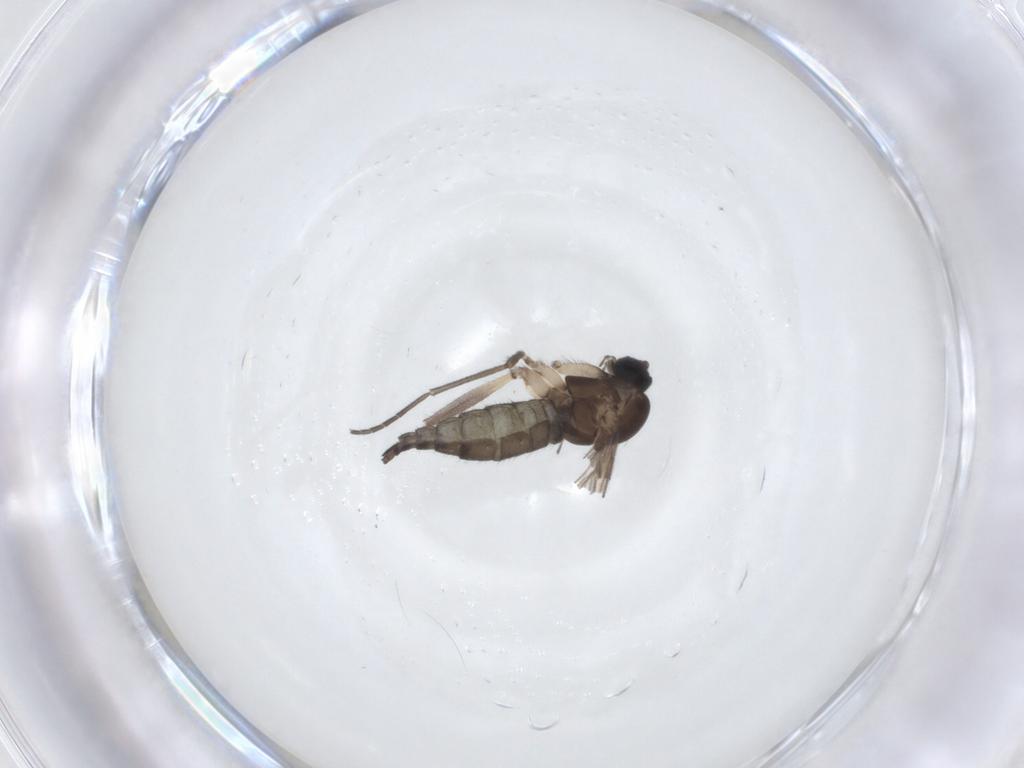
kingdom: Animalia
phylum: Arthropoda
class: Insecta
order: Diptera
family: Sciaridae
